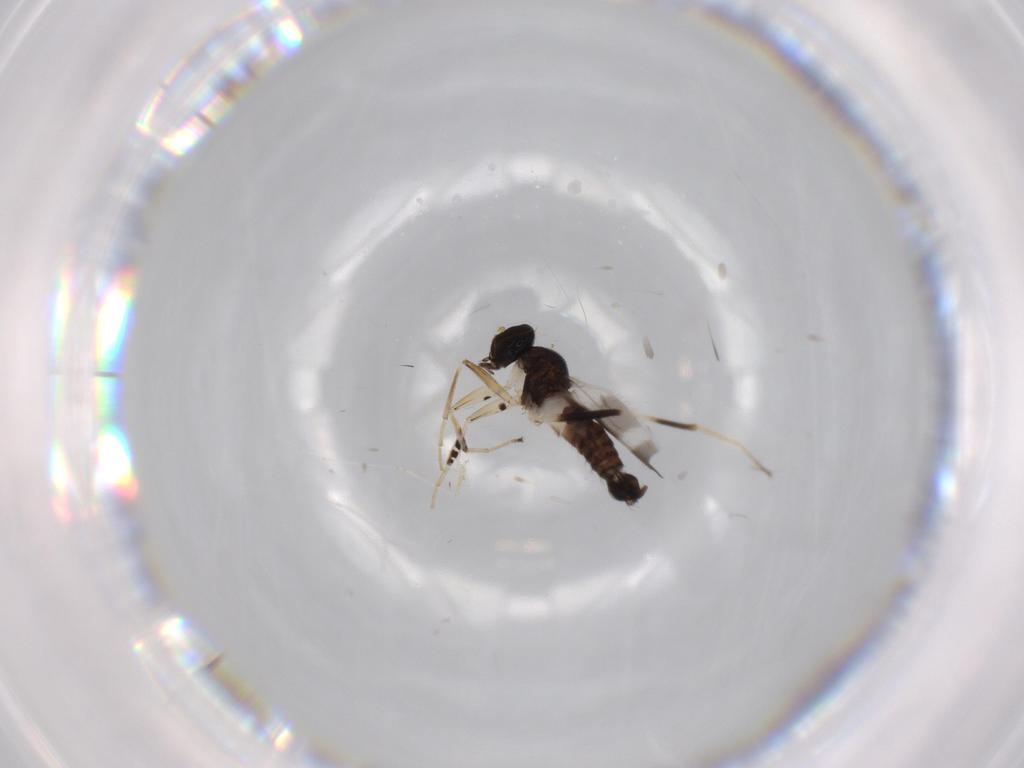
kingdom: Animalia
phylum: Arthropoda
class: Insecta
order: Diptera
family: Hybotidae
